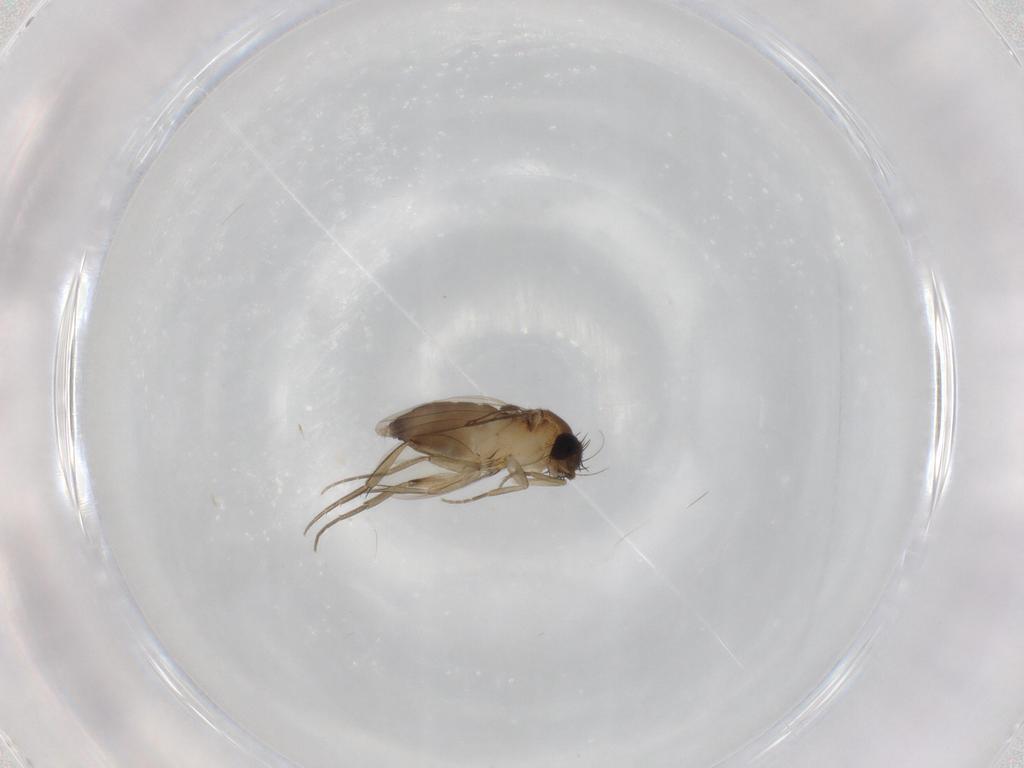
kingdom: Animalia
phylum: Arthropoda
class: Insecta
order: Diptera
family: Phoridae
